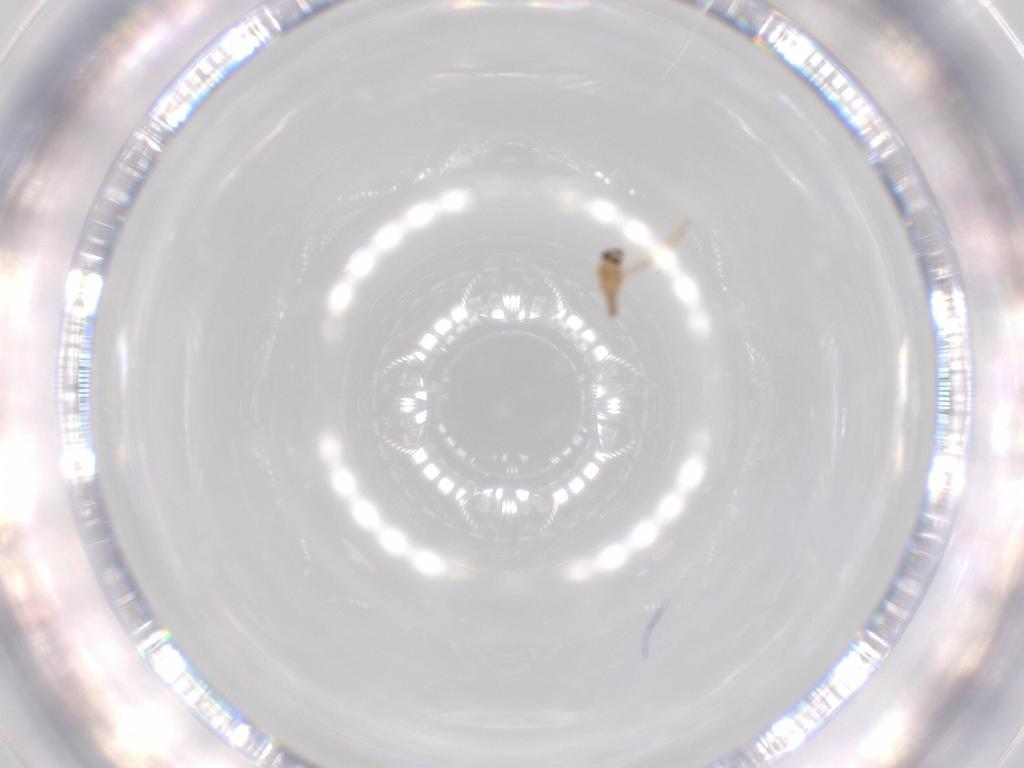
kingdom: Animalia
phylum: Arthropoda
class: Insecta
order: Diptera
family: Cecidomyiidae
